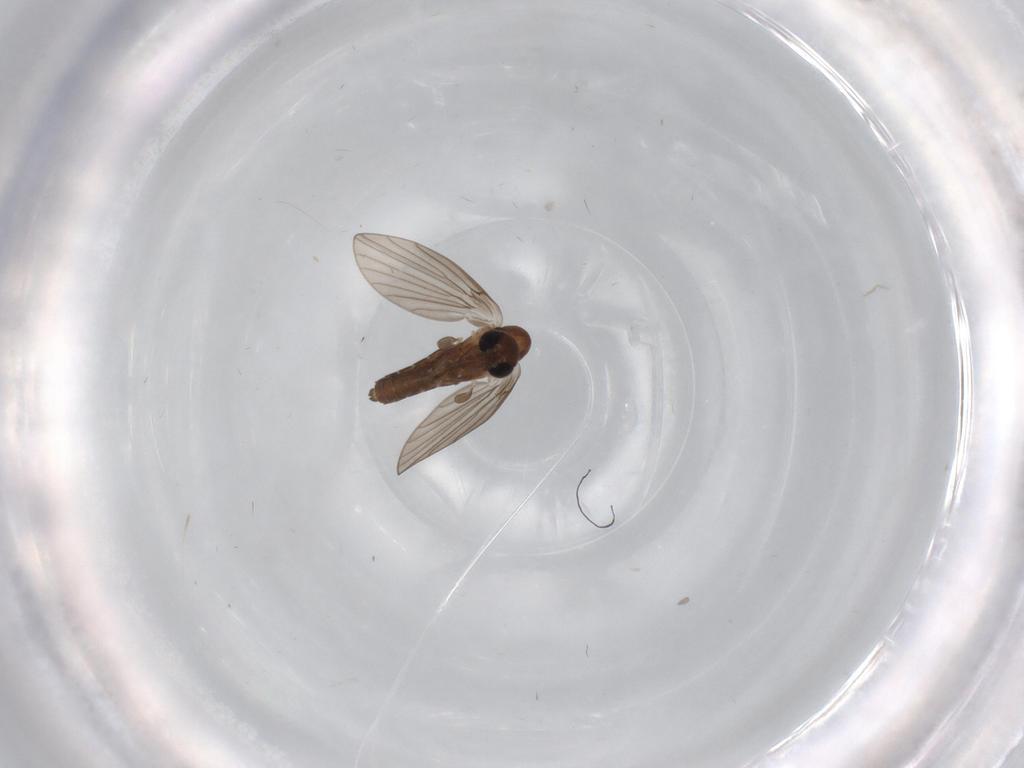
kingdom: Animalia
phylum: Arthropoda
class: Insecta
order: Diptera
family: Psychodidae
